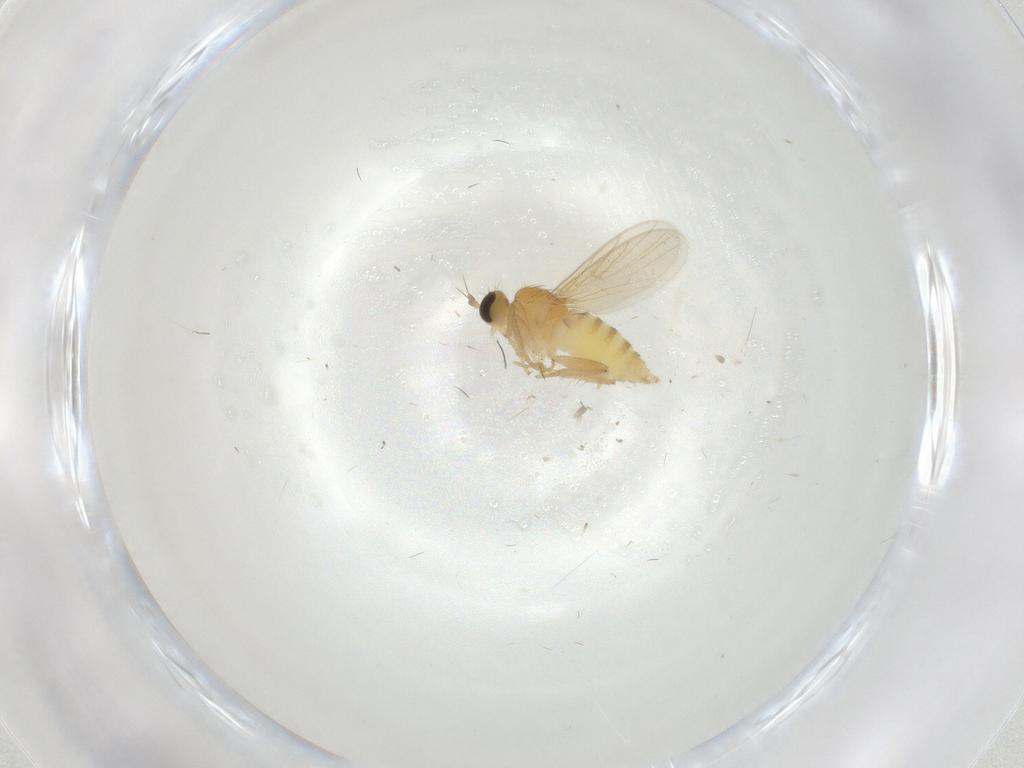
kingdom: Animalia
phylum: Arthropoda
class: Insecta
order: Diptera
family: Hybotidae
